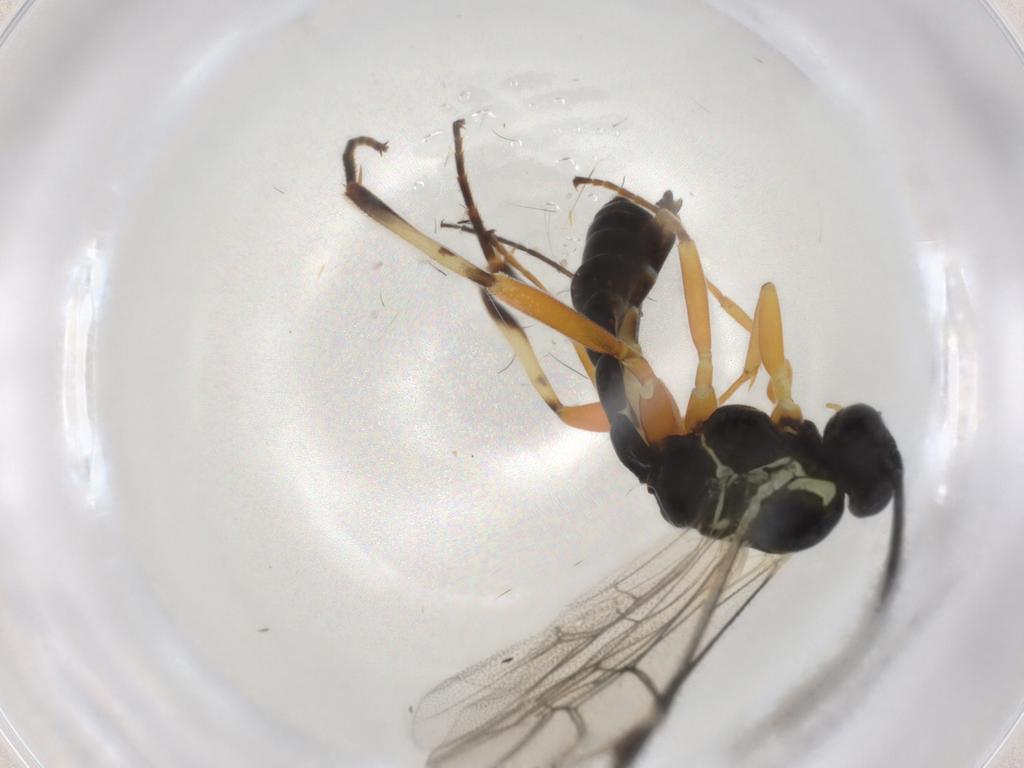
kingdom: Animalia
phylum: Arthropoda
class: Insecta
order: Hymenoptera
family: Ichneumonidae
